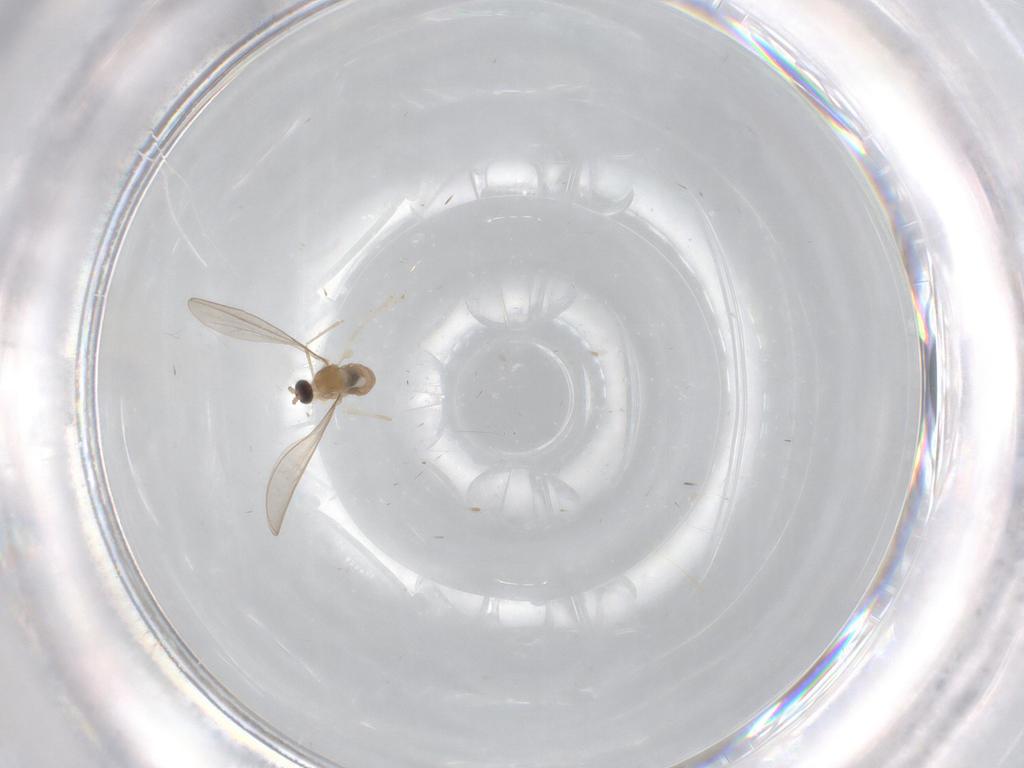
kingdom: Animalia
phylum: Arthropoda
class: Insecta
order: Diptera
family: Cecidomyiidae
